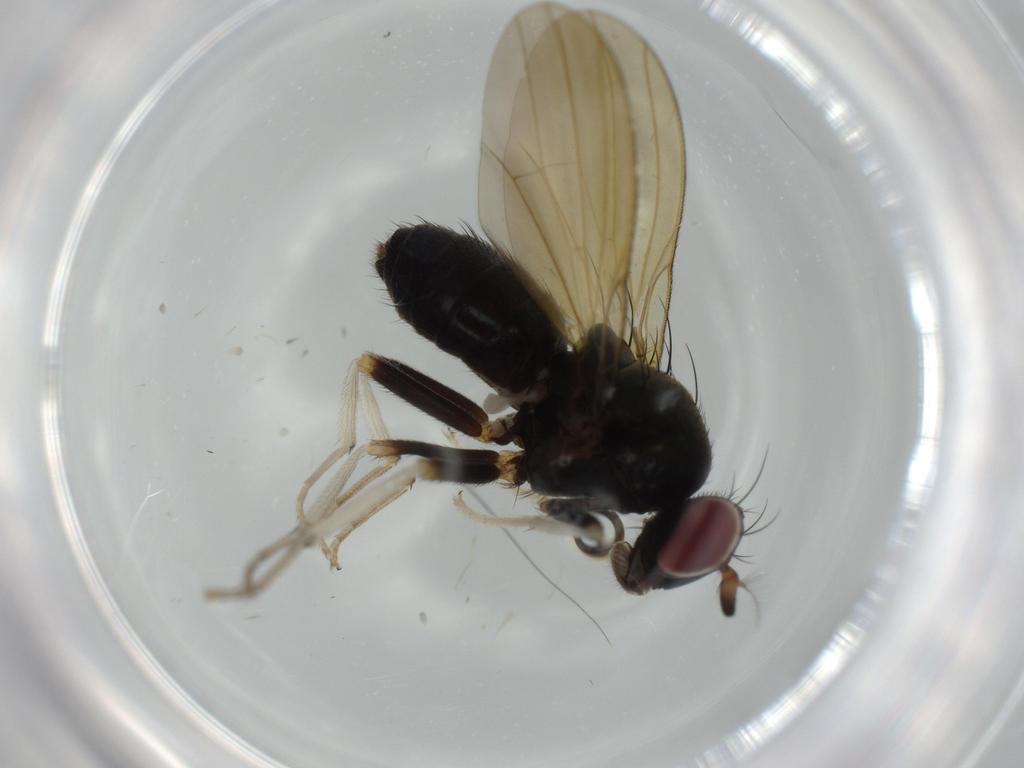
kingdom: Animalia
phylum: Arthropoda
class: Insecta
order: Diptera
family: Lauxaniidae
